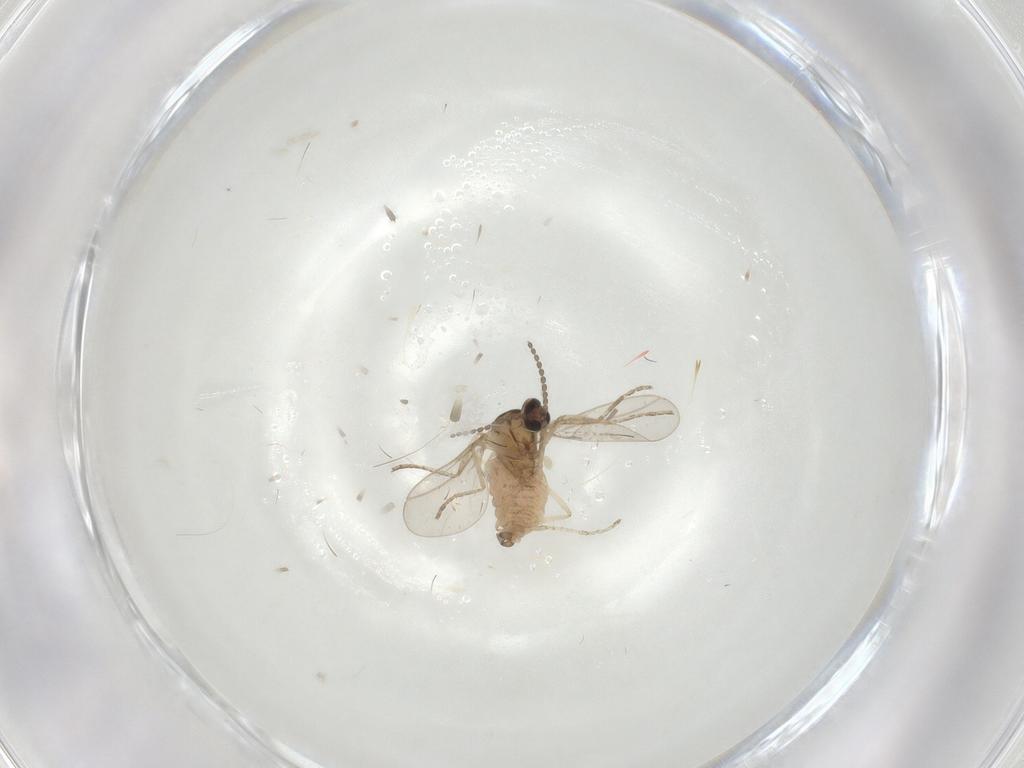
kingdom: Animalia
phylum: Arthropoda
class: Insecta
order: Diptera
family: Cecidomyiidae
